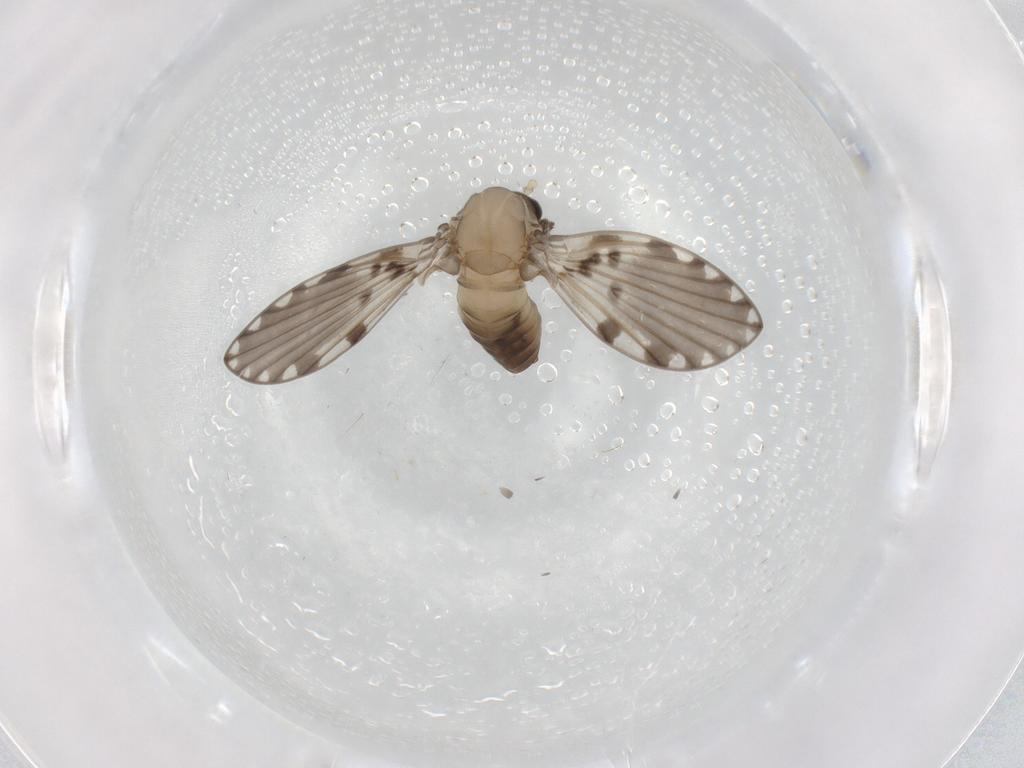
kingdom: Animalia
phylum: Arthropoda
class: Insecta
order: Diptera
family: Psychodidae
